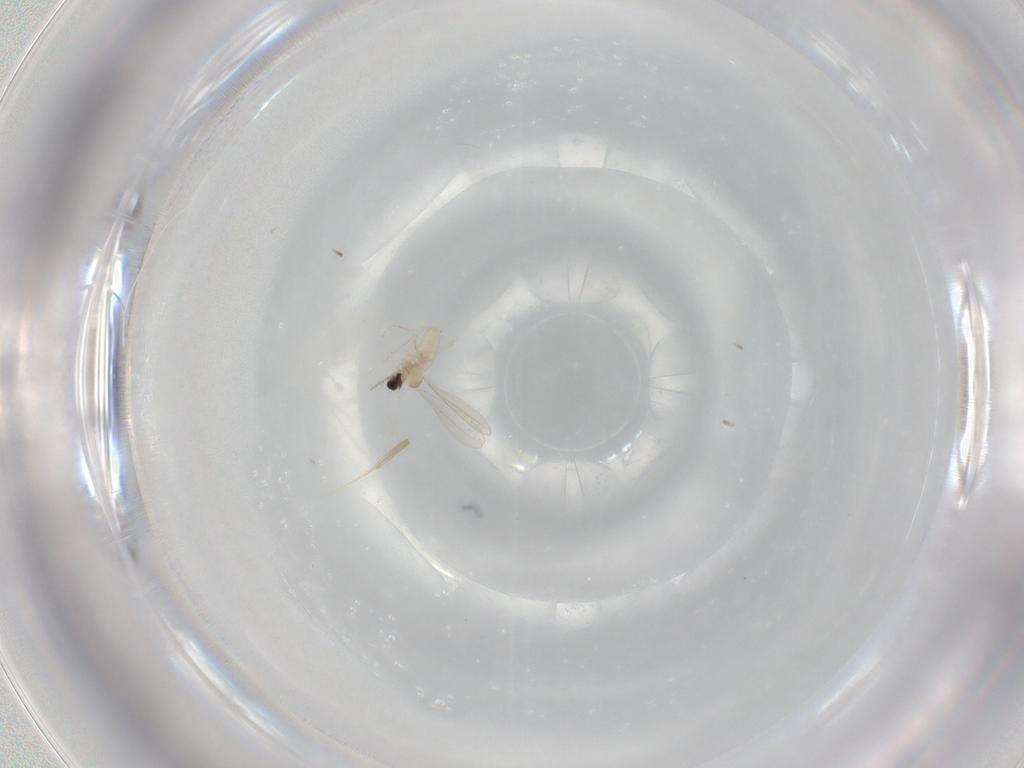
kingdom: Animalia
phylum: Arthropoda
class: Insecta
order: Diptera
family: Cecidomyiidae
